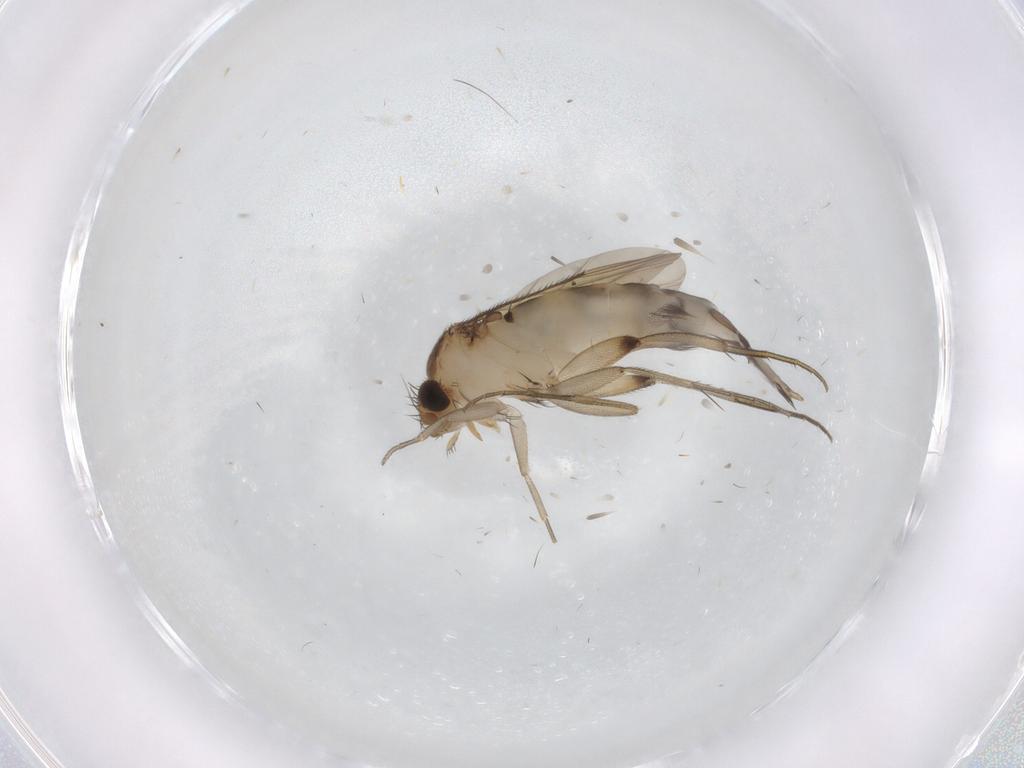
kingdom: Animalia
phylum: Arthropoda
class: Insecta
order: Diptera
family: Phoridae
